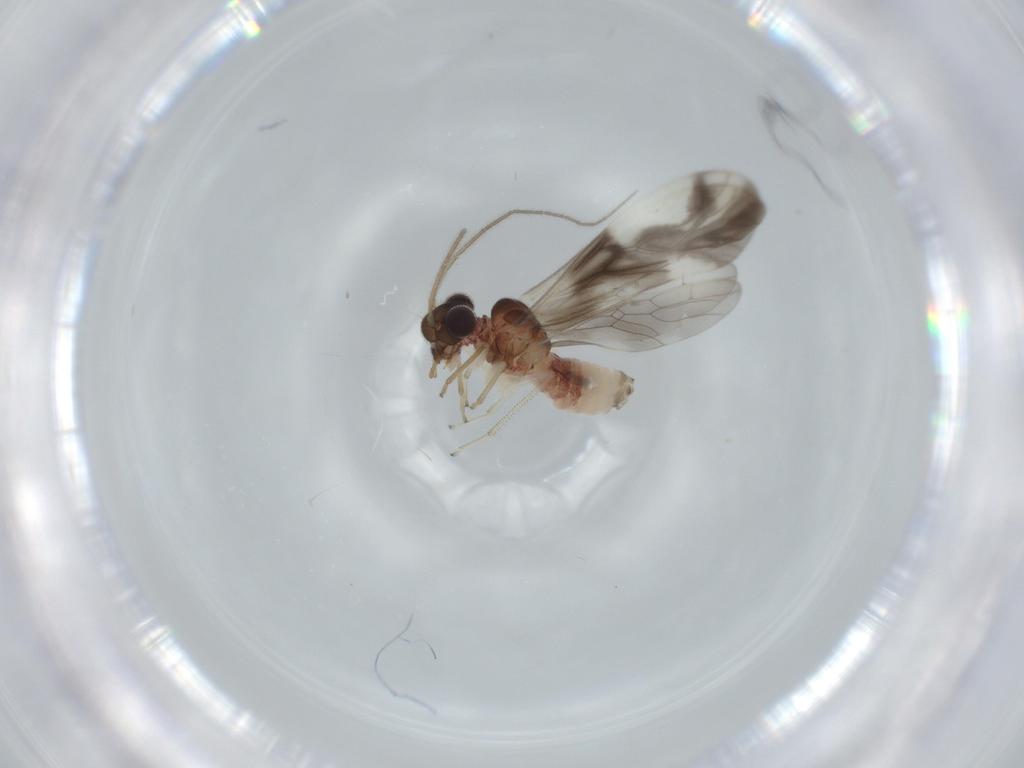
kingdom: Animalia
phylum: Arthropoda
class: Insecta
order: Psocodea
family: Caeciliusidae
